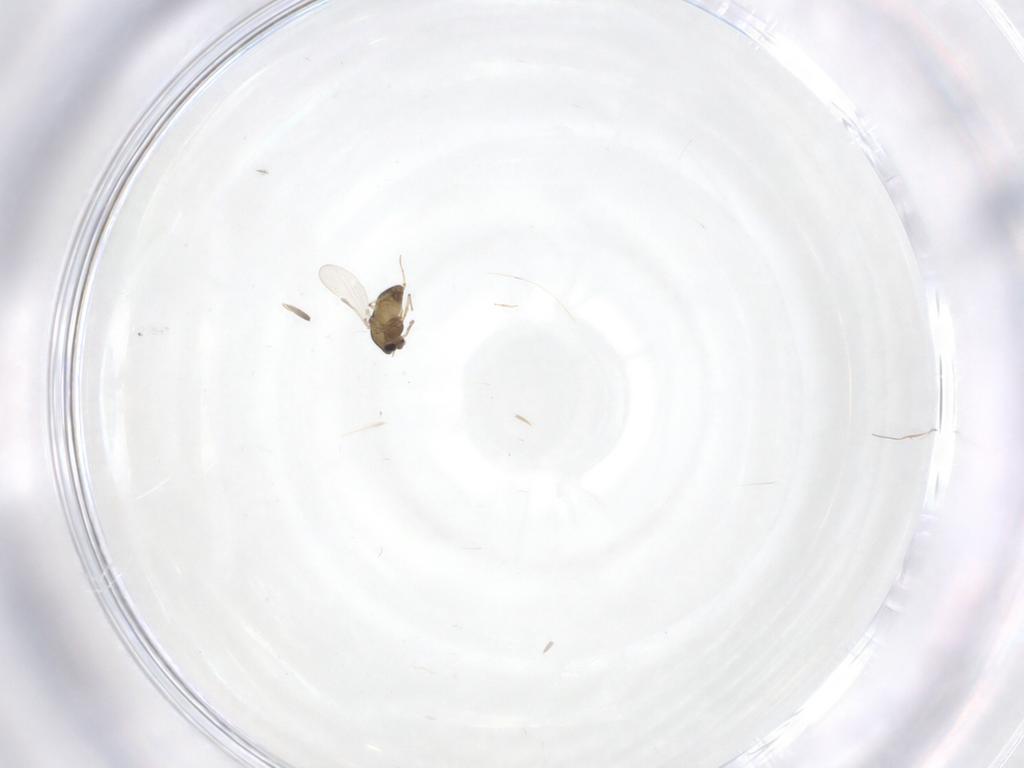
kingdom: Animalia
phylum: Arthropoda
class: Insecta
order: Diptera
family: Chironomidae
